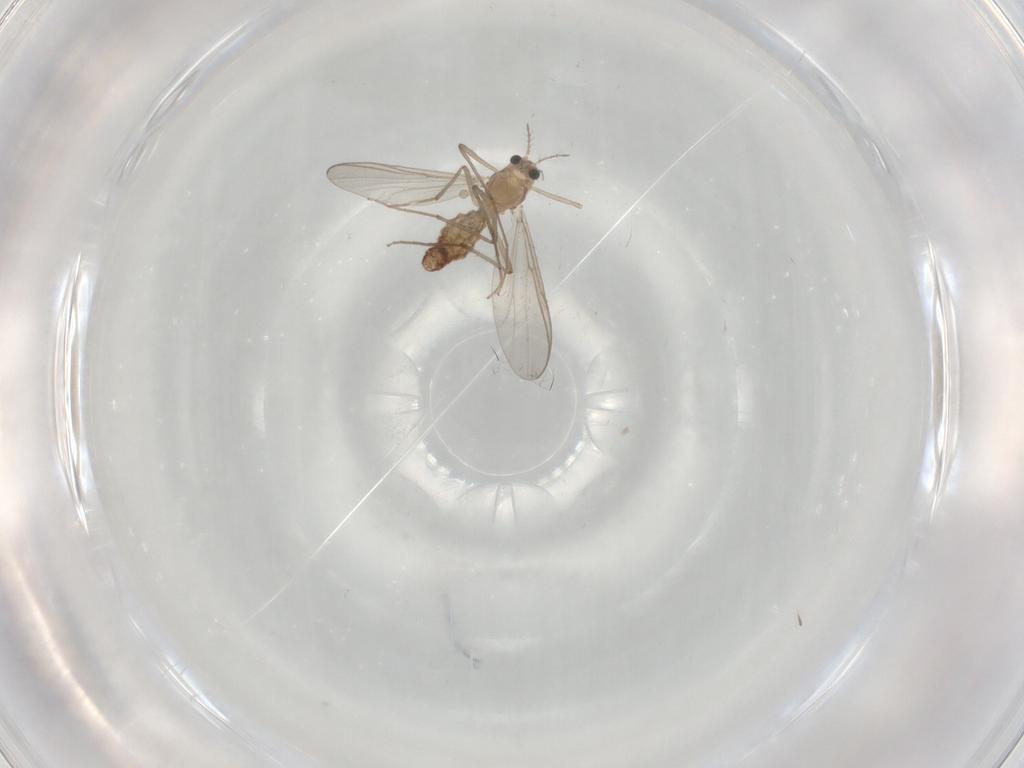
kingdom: Animalia
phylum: Arthropoda
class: Insecta
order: Diptera
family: Chironomidae
